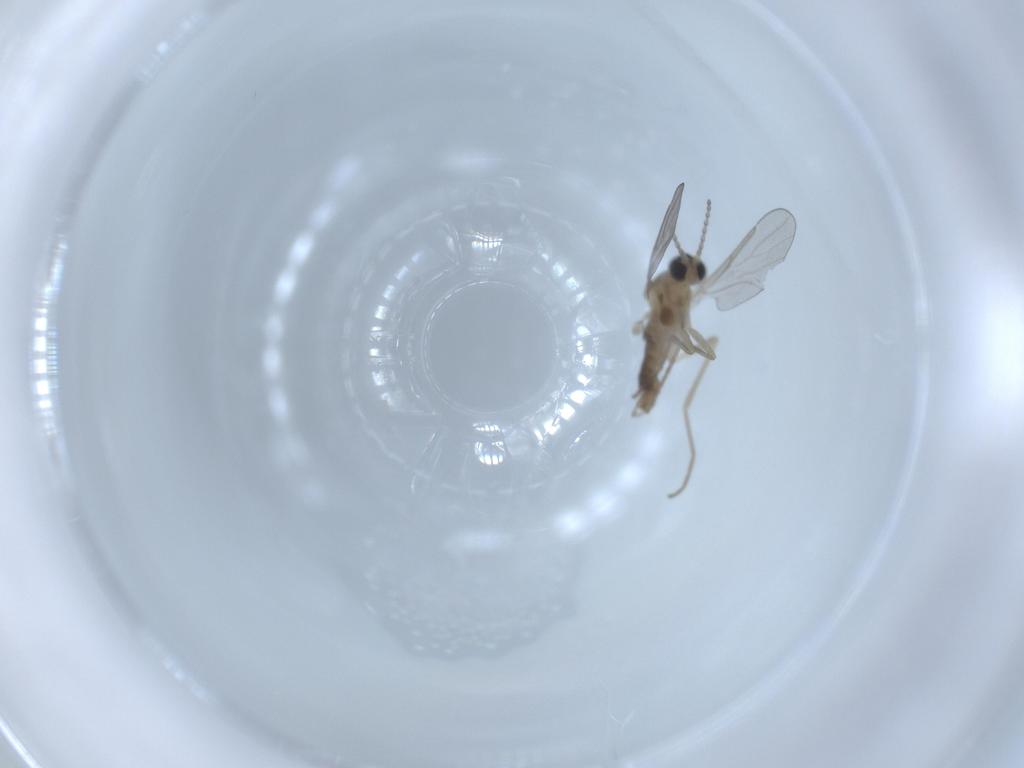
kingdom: Animalia
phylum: Arthropoda
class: Insecta
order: Diptera
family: Cecidomyiidae
